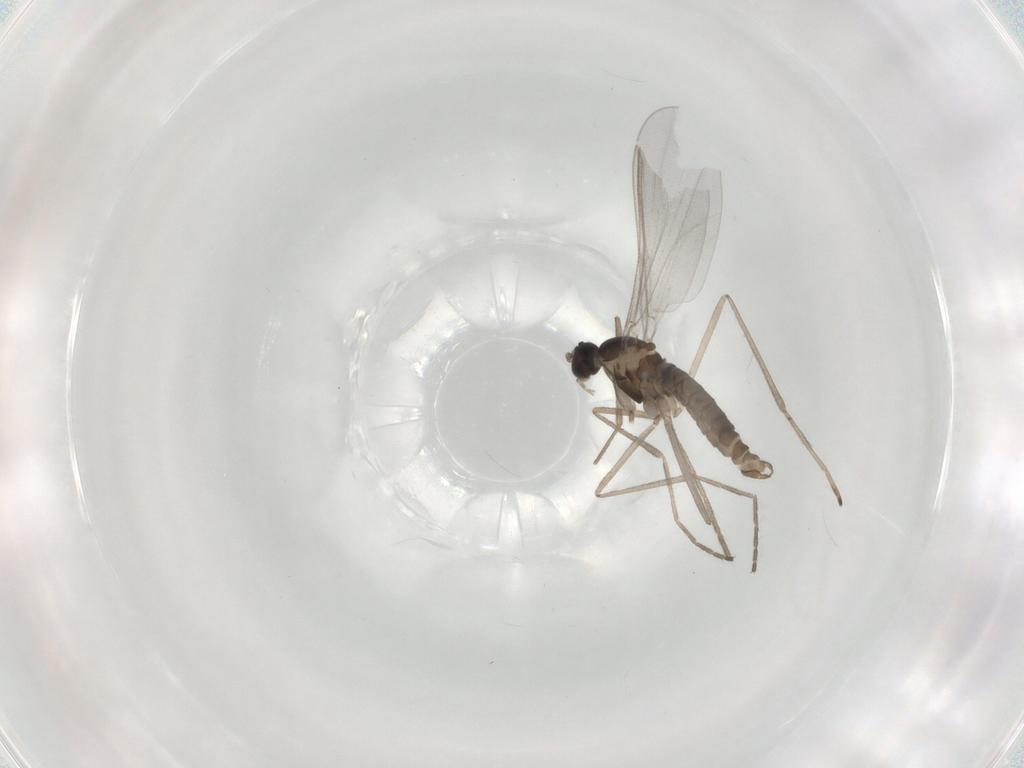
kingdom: Animalia
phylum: Arthropoda
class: Insecta
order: Diptera
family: Cecidomyiidae
